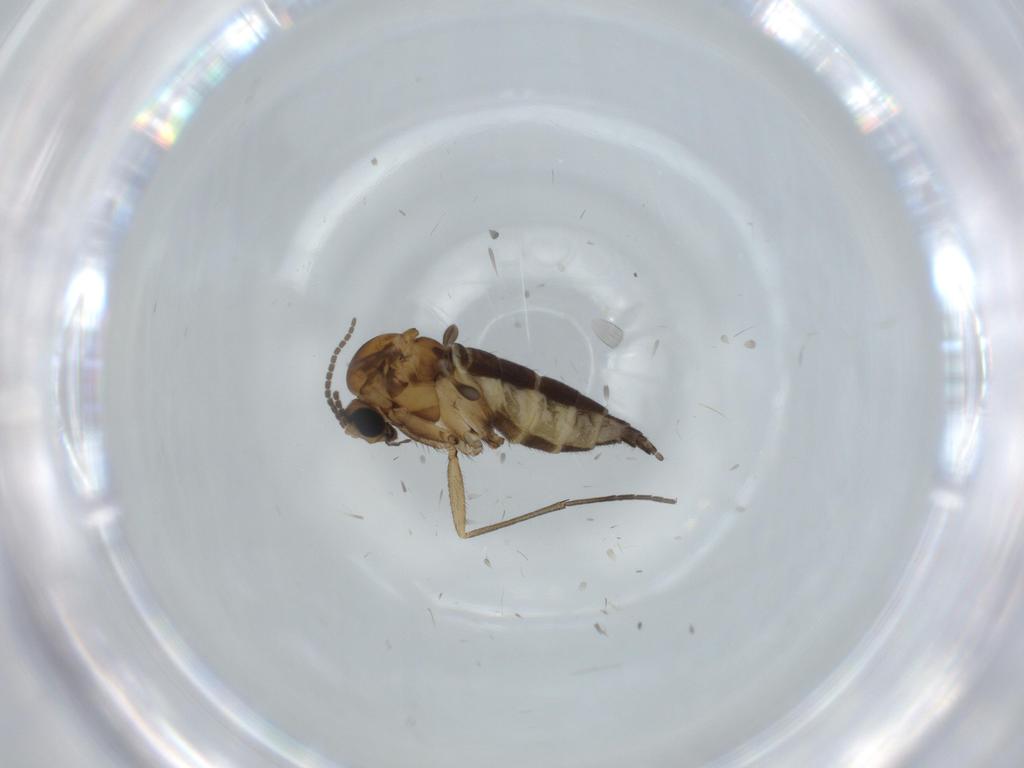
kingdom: Animalia
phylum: Arthropoda
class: Insecta
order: Diptera
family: Sciaridae
